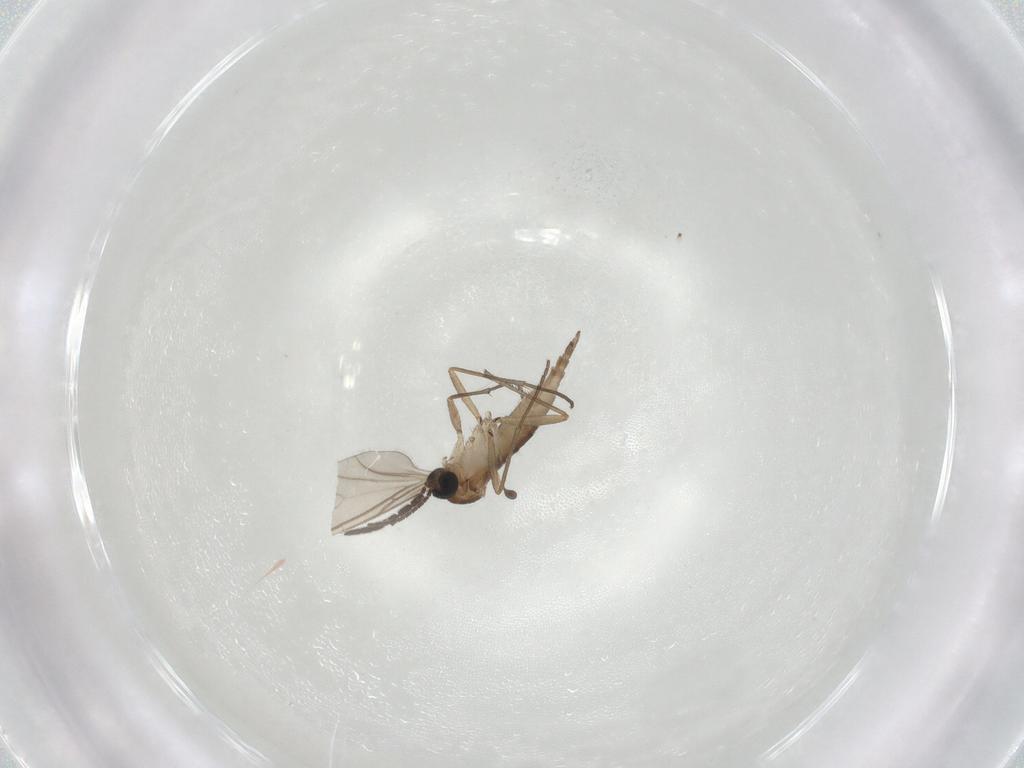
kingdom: Animalia
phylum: Arthropoda
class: Insecta
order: Diptera
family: Sciaridae
